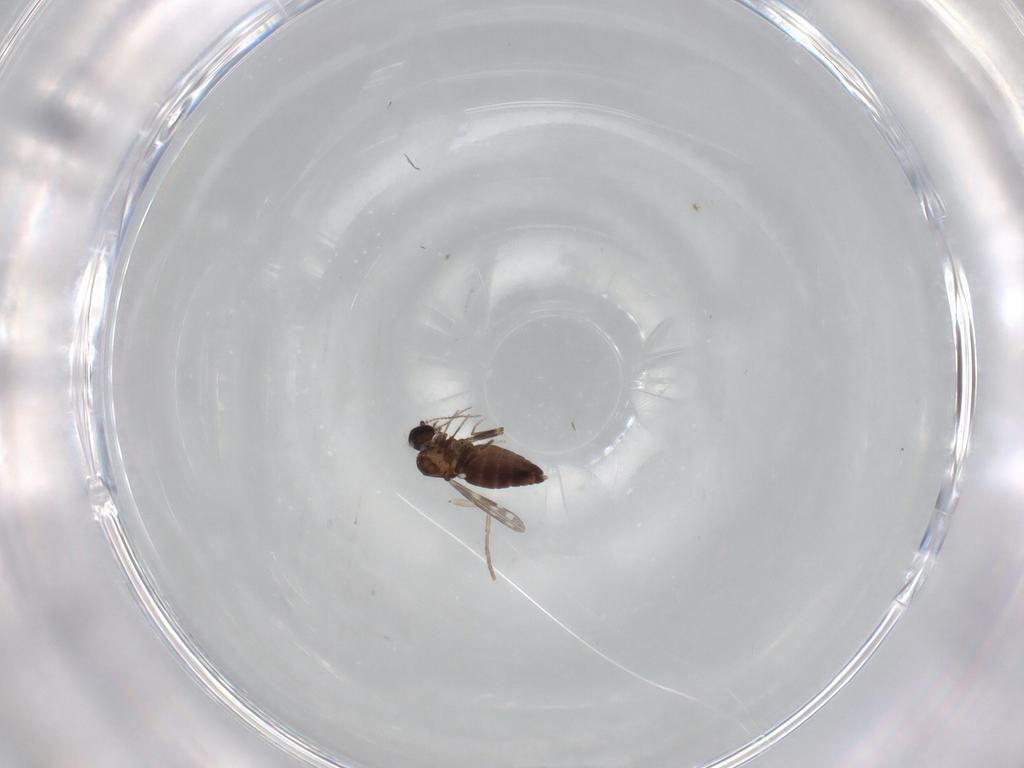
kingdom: Animalia
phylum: Arthropoda
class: Insecta
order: Diptera
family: Ceratopogonidae
